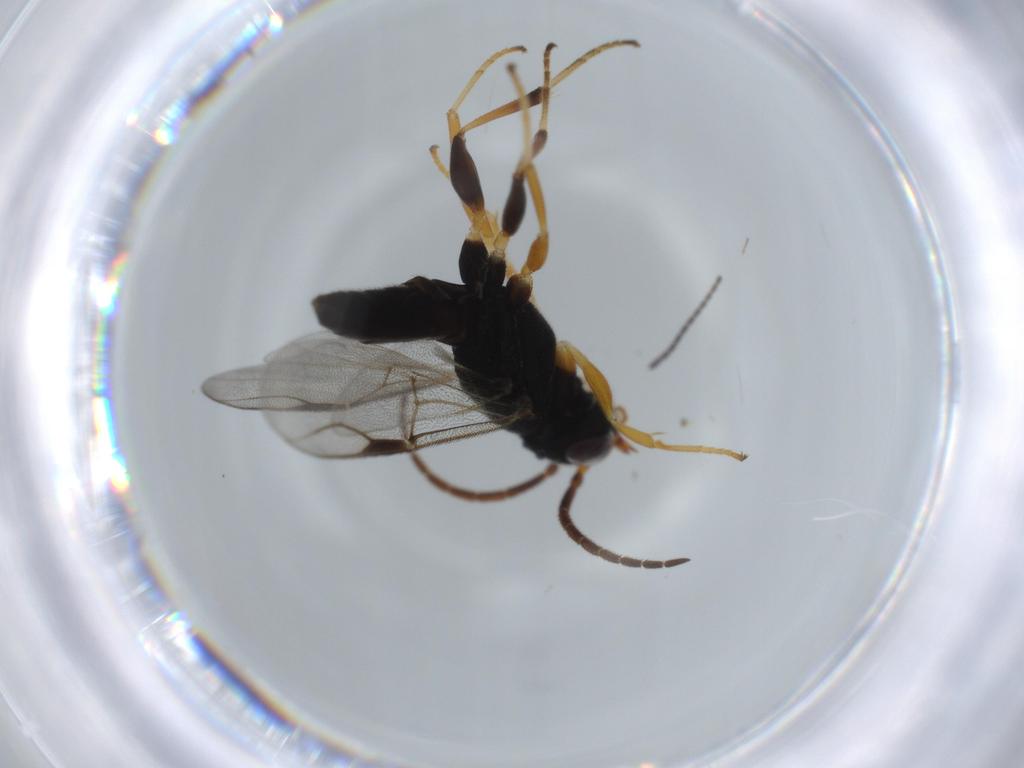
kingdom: Animalia
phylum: Arthropoda
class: Insecta
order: Hymenoptera
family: Dryinidae
